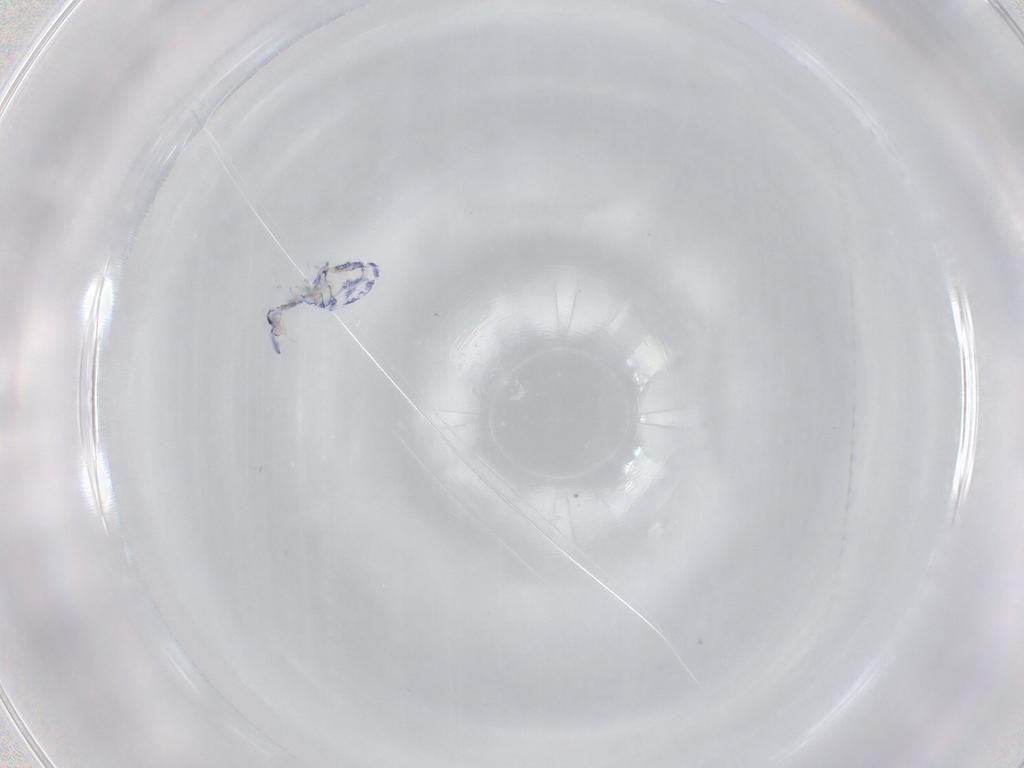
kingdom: Animalia
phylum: Arthropoda
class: Collembola
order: Entomobryomorpha
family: Entomobryidae
